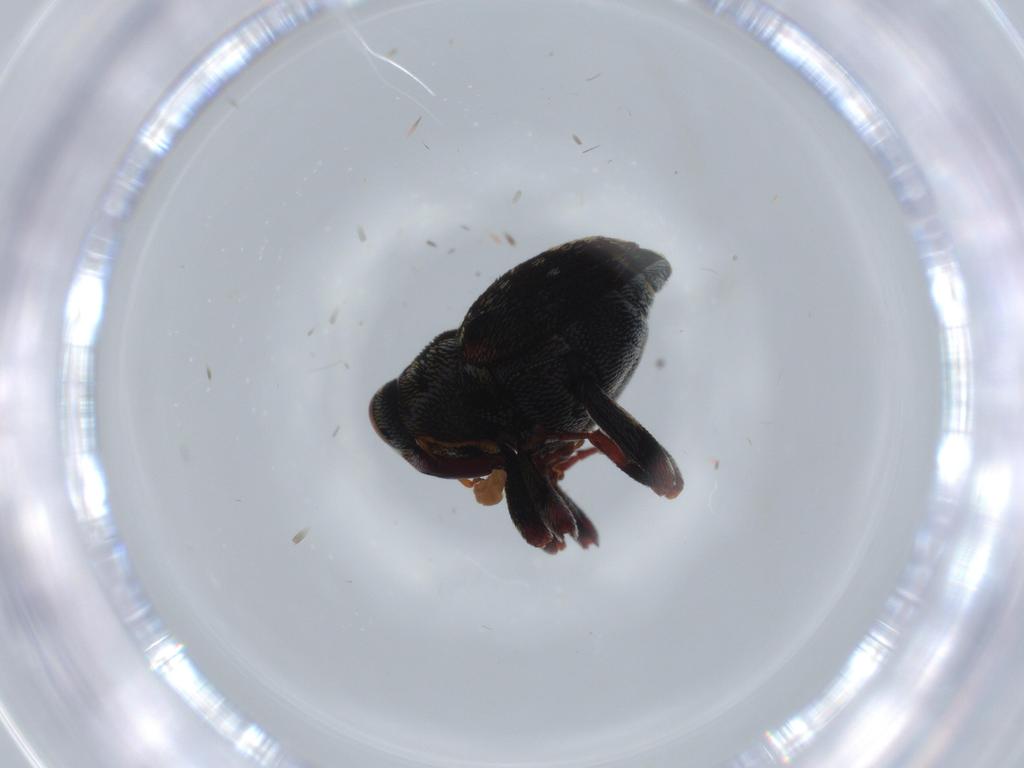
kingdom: Animalia
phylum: Arthropoda
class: Insecta
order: Coleoptera
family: Curculionidae
